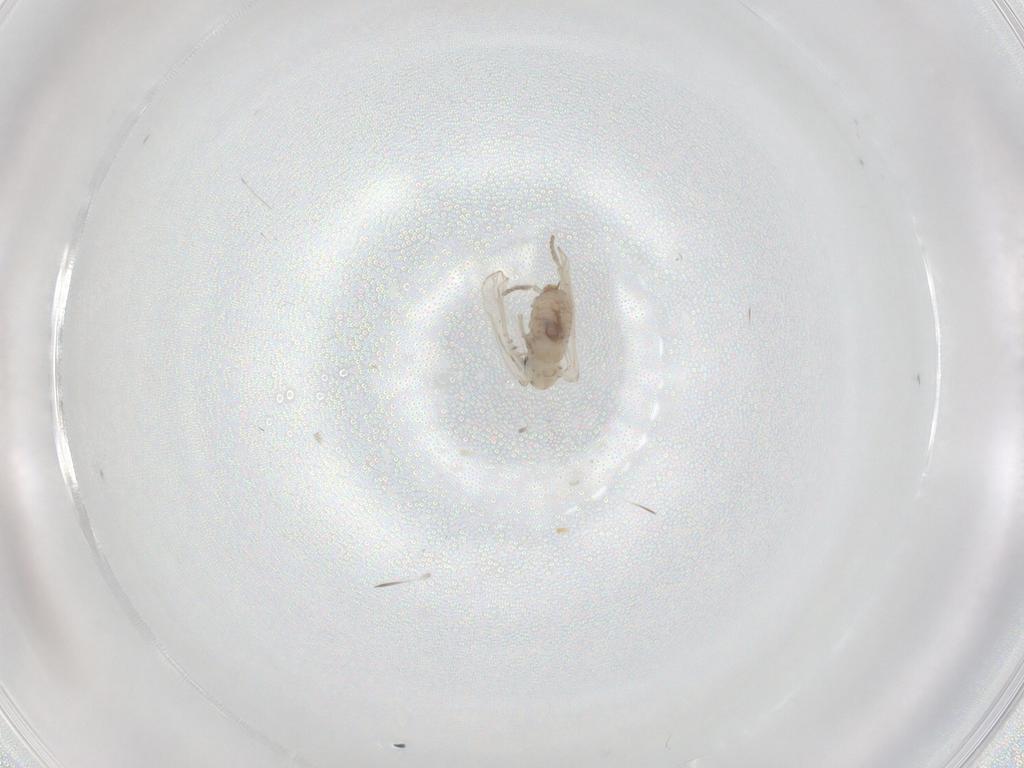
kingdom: Animalia
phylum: Arthropoda
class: Insecta
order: Diptera
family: Psychodidae
